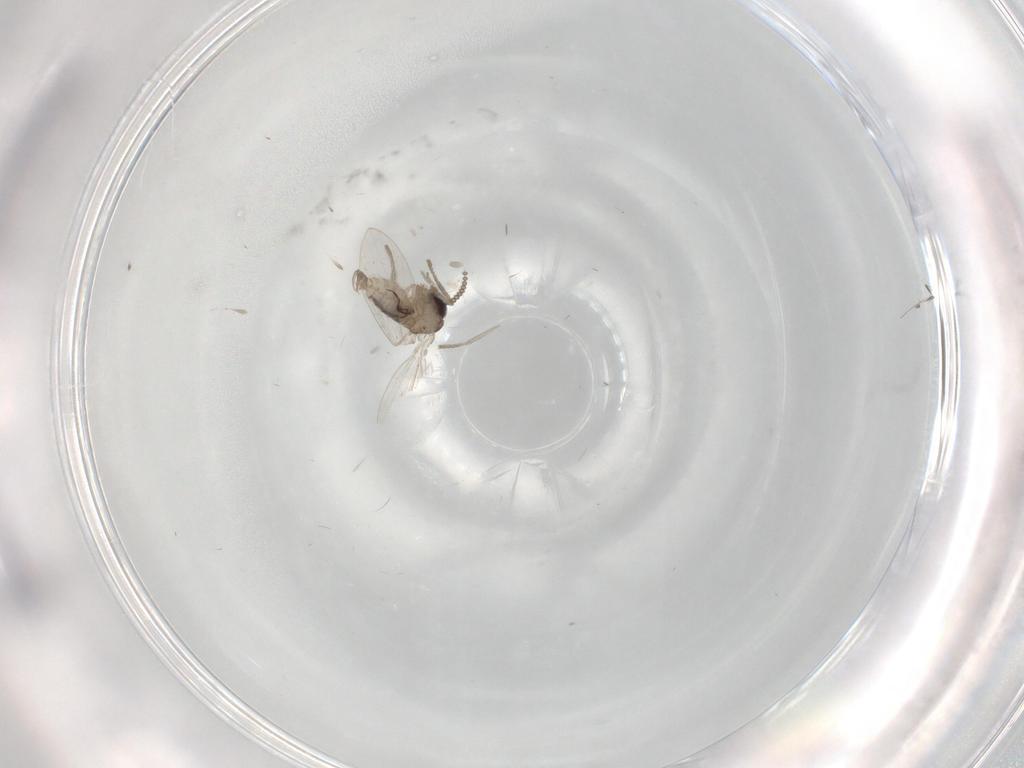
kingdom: Animalia
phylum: Arthropoda
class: Insecta
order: Diptera
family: Psychodidae
